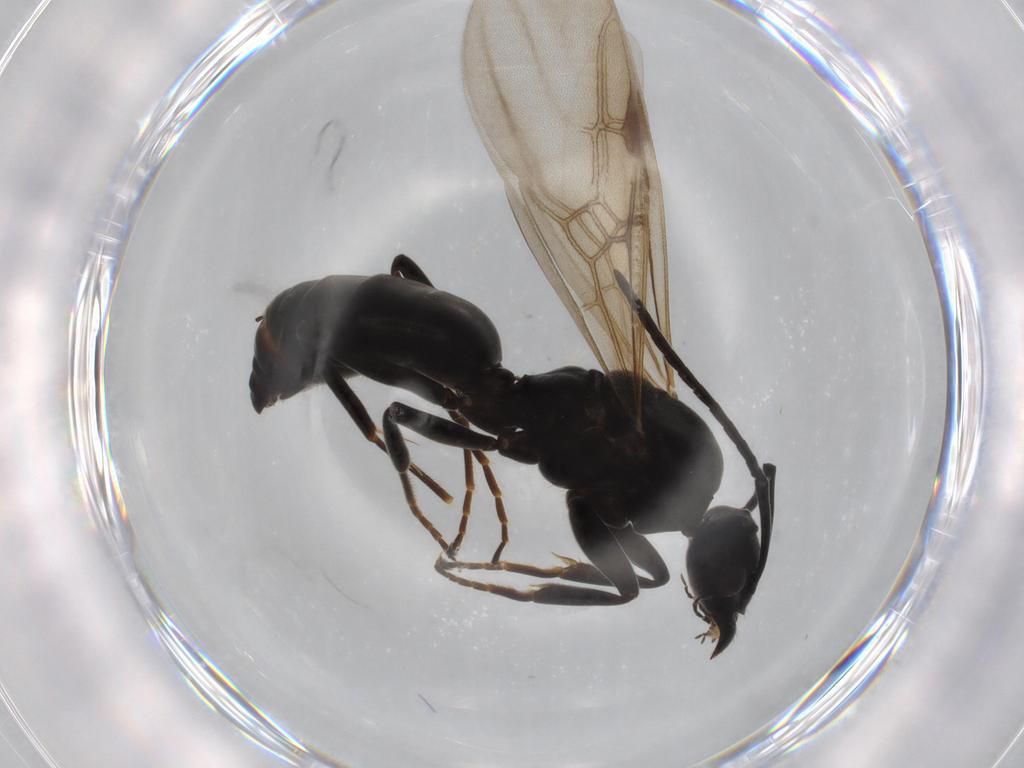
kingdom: Animalia
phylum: Arthropoda
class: Insecta
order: Hymenoptera
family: Formicidae
